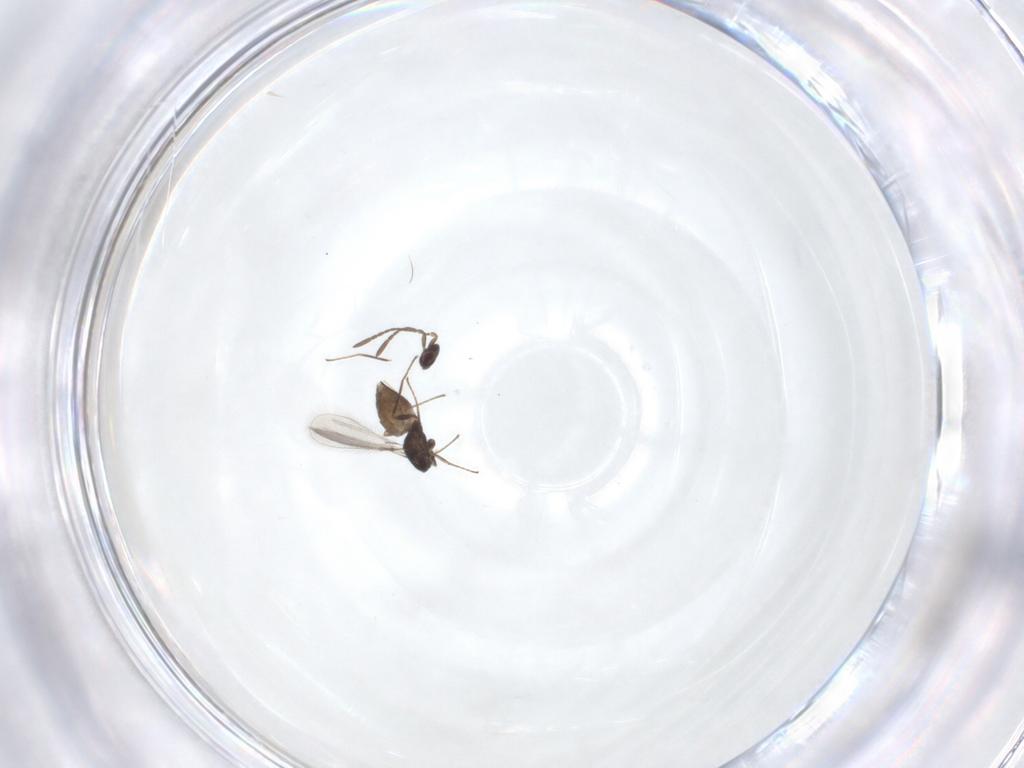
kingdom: Animalia
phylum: Arthropoda
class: Insecta
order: Hymenoptera
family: Mymaridae
